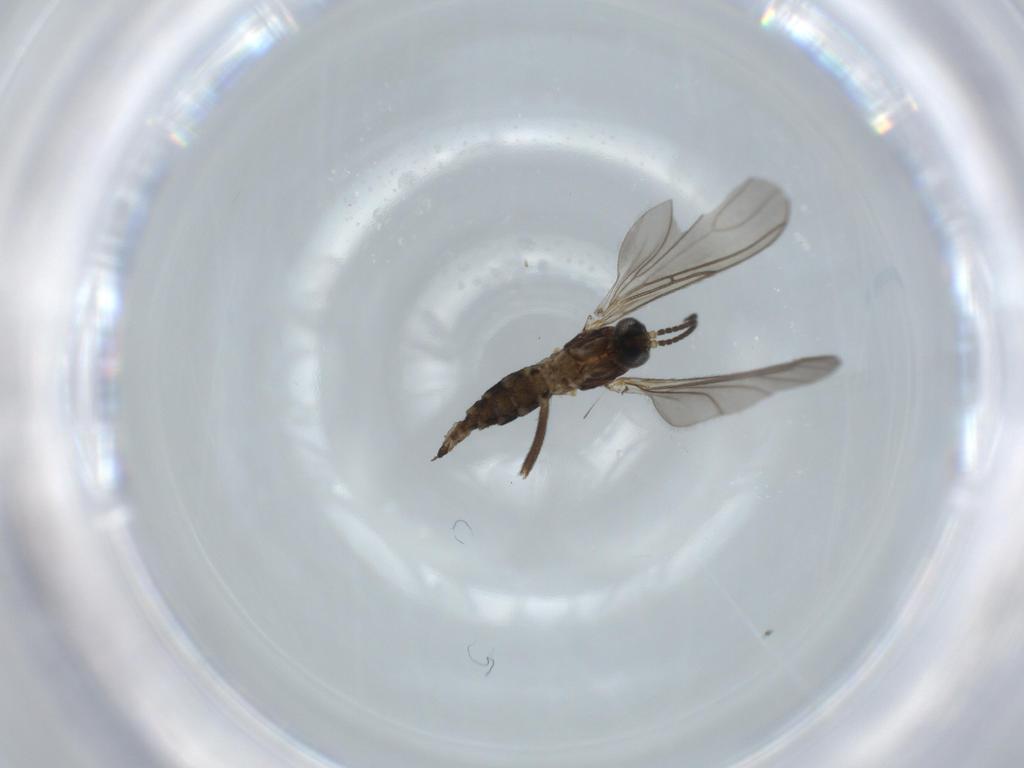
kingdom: Animalia
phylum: Arthropoda
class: Insecta
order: Diptera
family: Sciaridae
